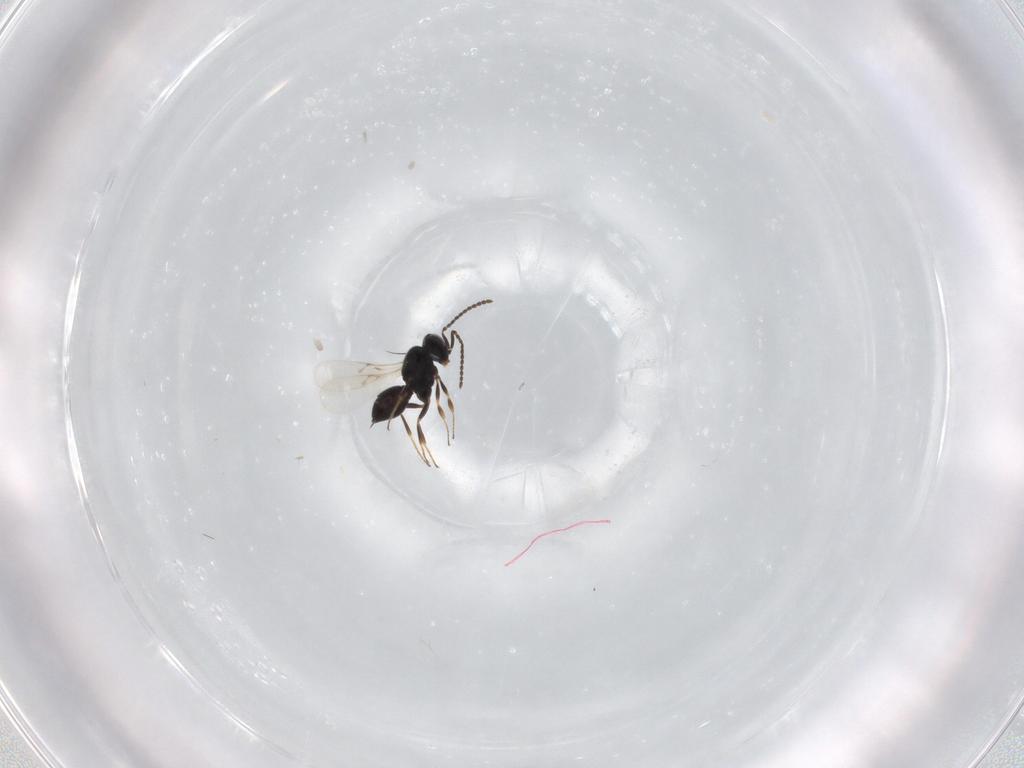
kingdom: Animalia
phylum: Arthropoda
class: Insecta
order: Hymenoptera
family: Scelionidae
